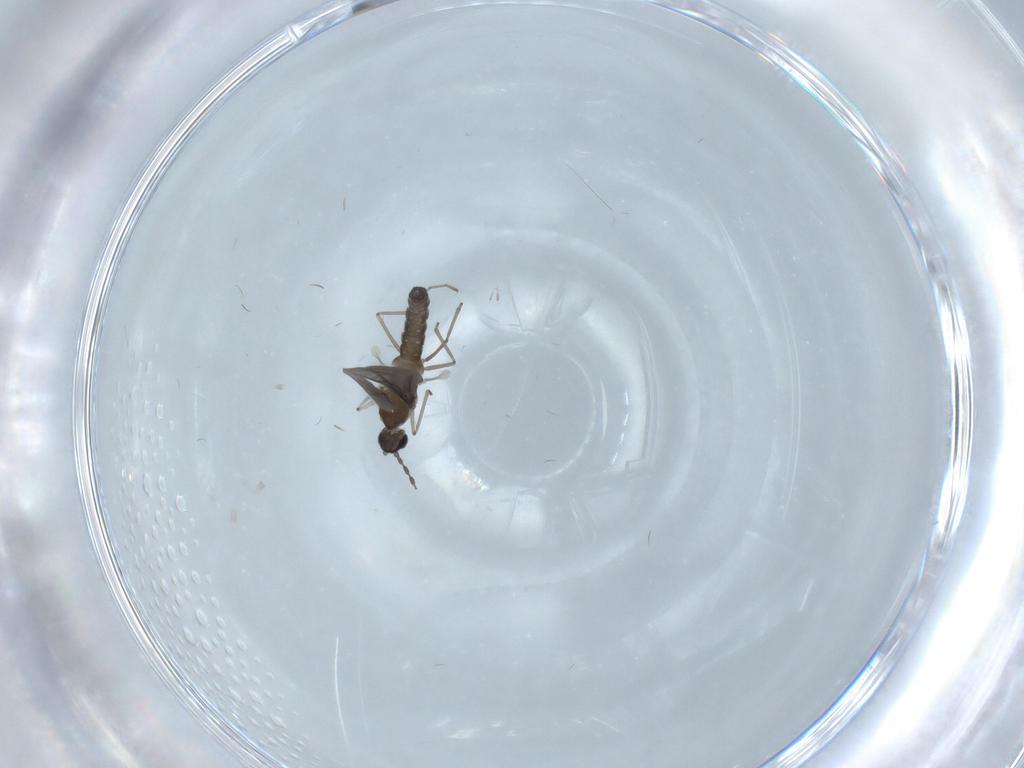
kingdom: Animalia
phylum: Arthropoda
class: Insecta
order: Diptera
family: Cecidomyiidae
